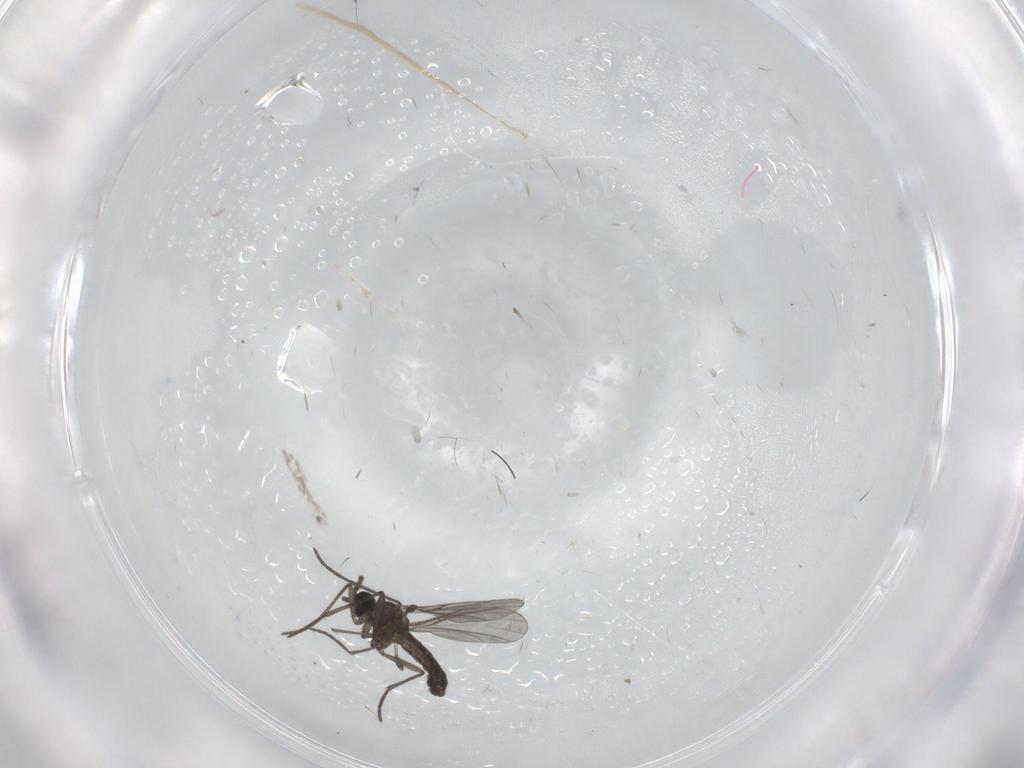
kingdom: Animalia
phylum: Arthropoda
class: Insecta
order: Diptera
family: Sciaridae
